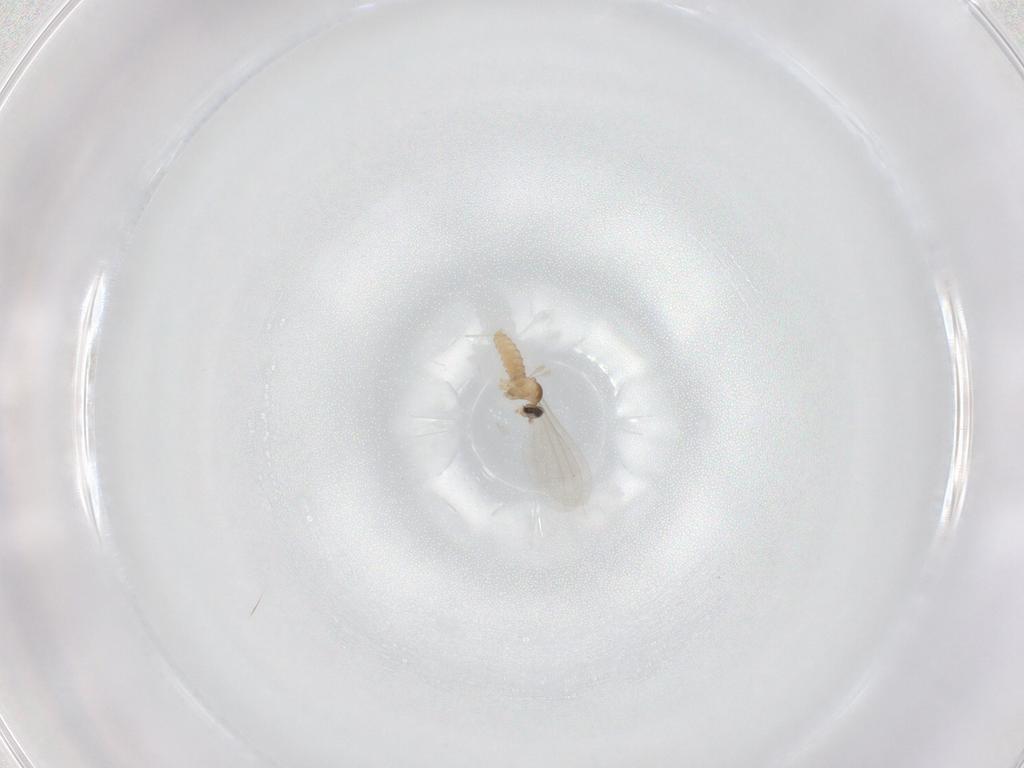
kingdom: Animalia
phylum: Arthropoda
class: Insecta
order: Diptera
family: Cecidomyiidae
